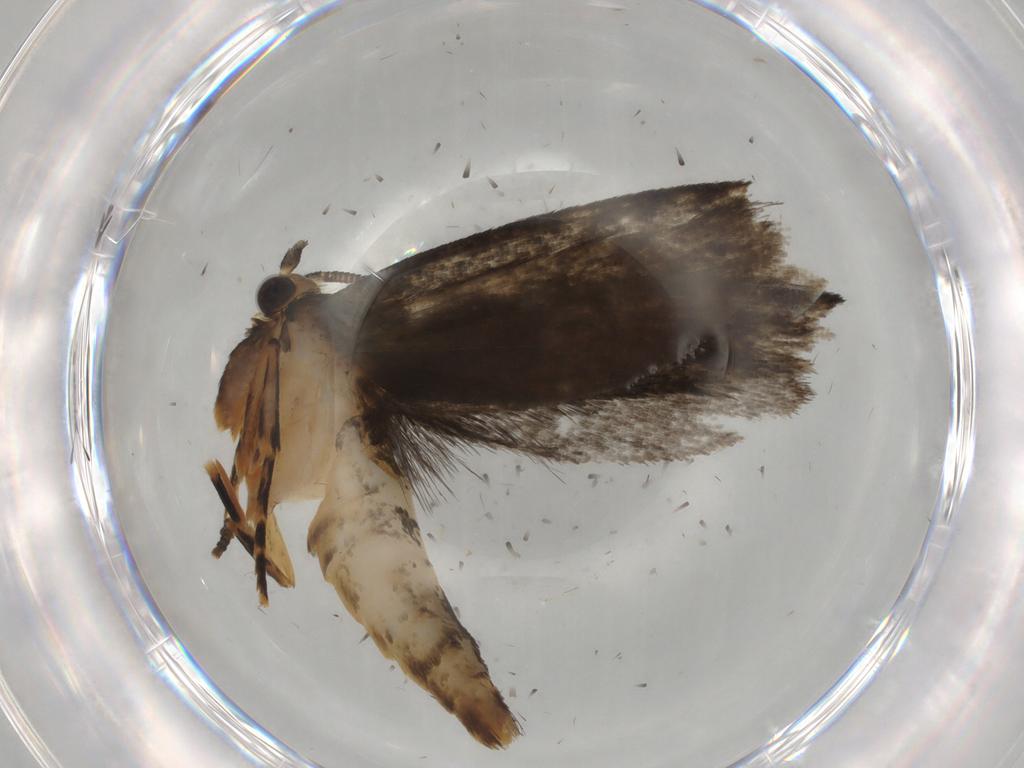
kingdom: Animalia
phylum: Arthropoda
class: Insecta
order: Lepidoptera
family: Tineidae
